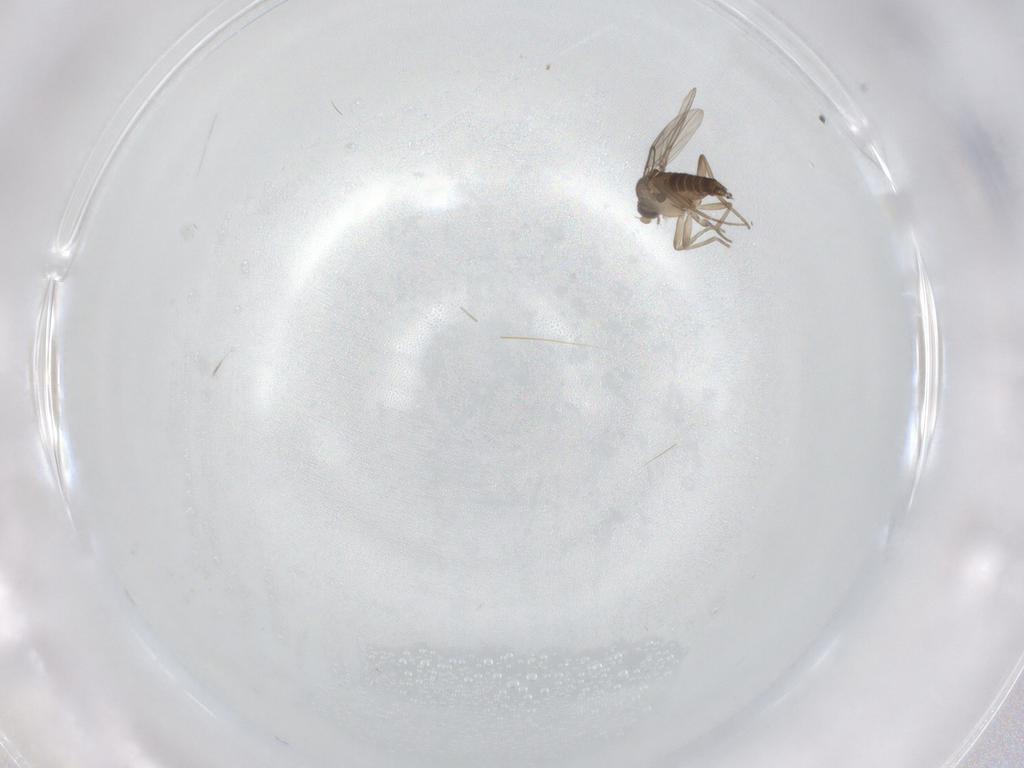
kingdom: Animalia
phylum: Arthropoda
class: Insecta
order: Diptera
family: Phoridae
